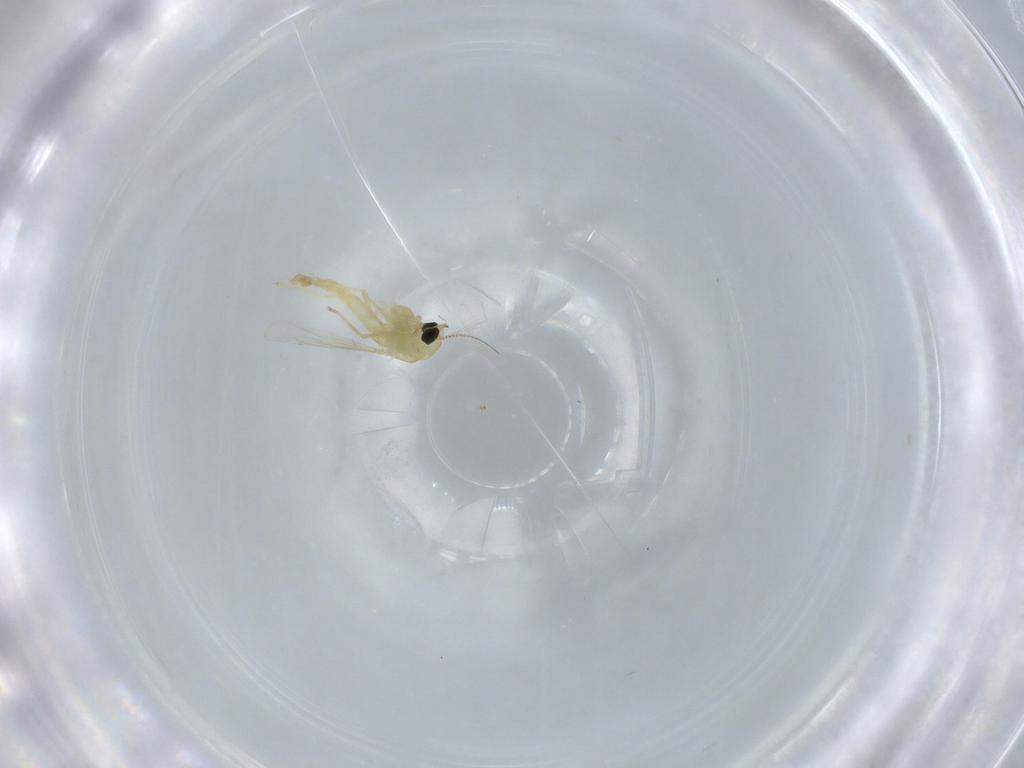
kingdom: Animalia
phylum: Arthropoda
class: Insecta
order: Diptera
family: Chironomidae
